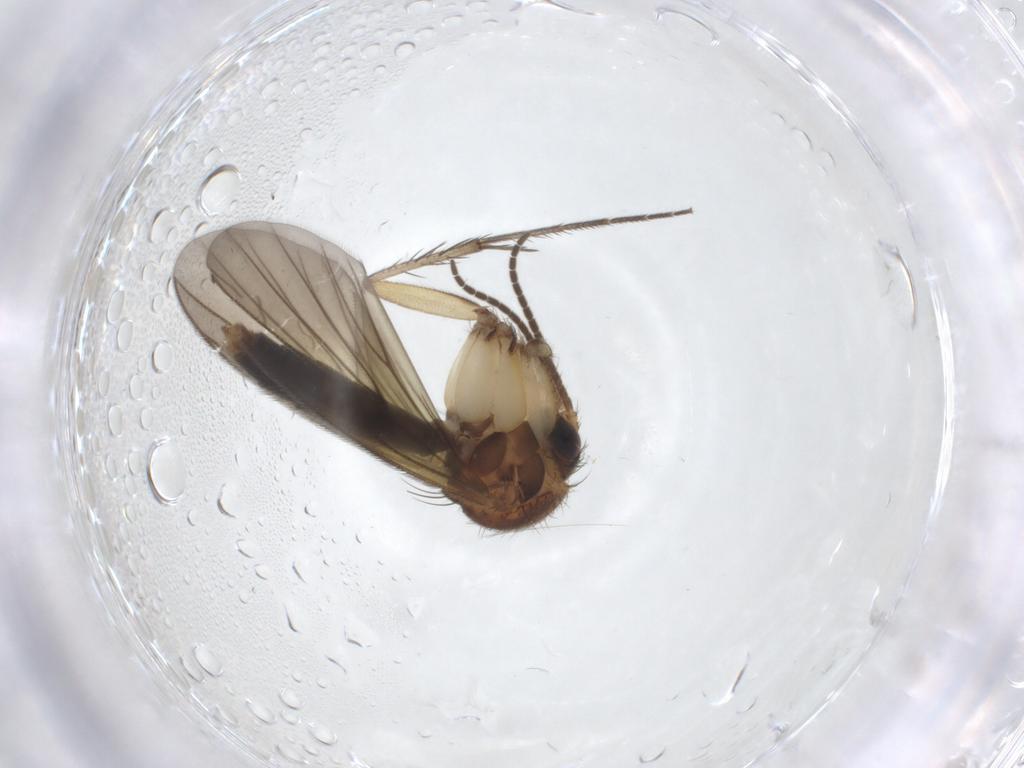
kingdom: Animalia
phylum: Arthropoda
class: Insecta
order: Diptera
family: Mycetophilidae
